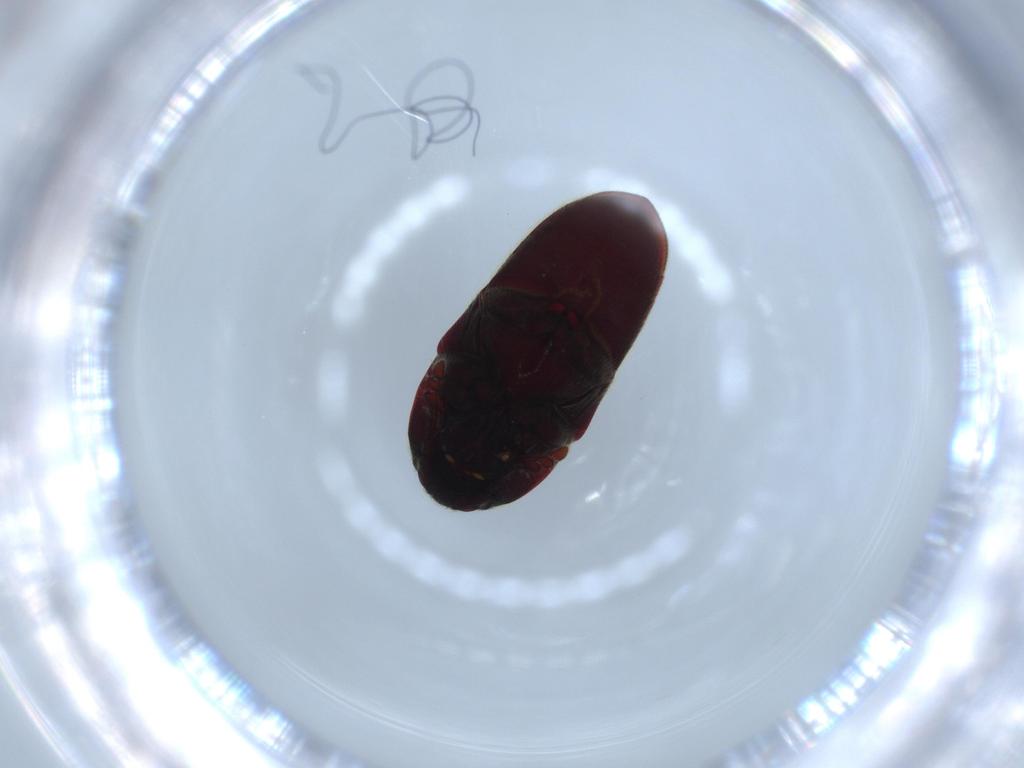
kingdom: Animalia
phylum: Arthropoda
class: Insecta
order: Coleoptera
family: Throscidae
